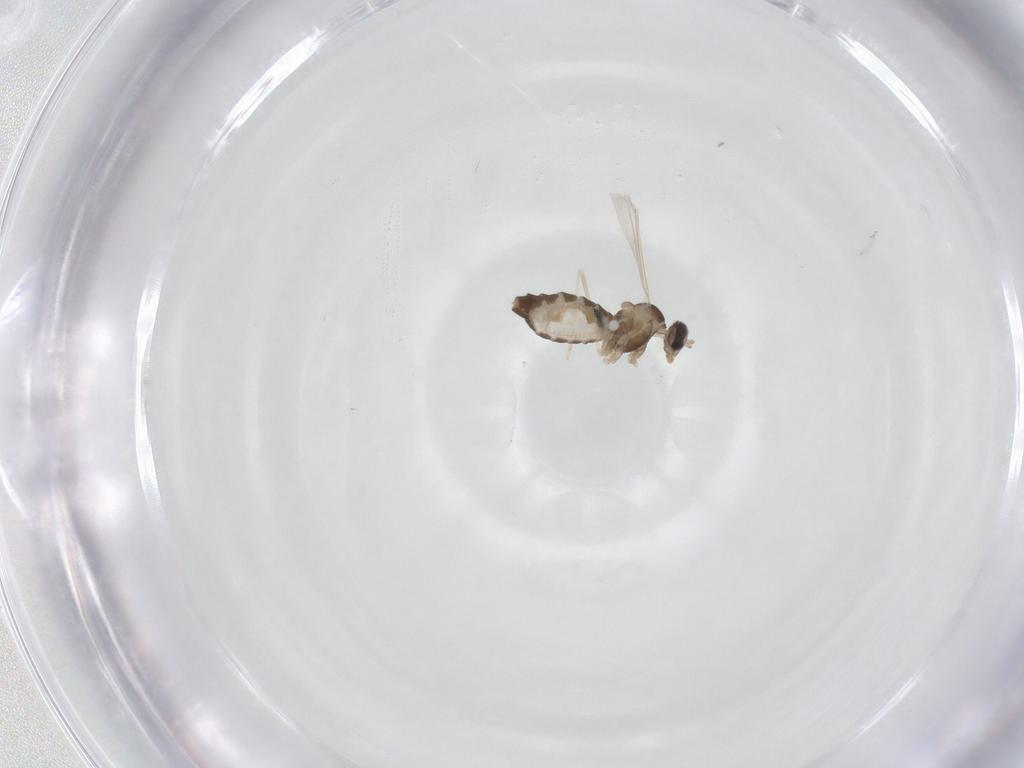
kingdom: Animalia
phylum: Arthropoda
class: Insecta
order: Diptera
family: Cecidomyiidae
